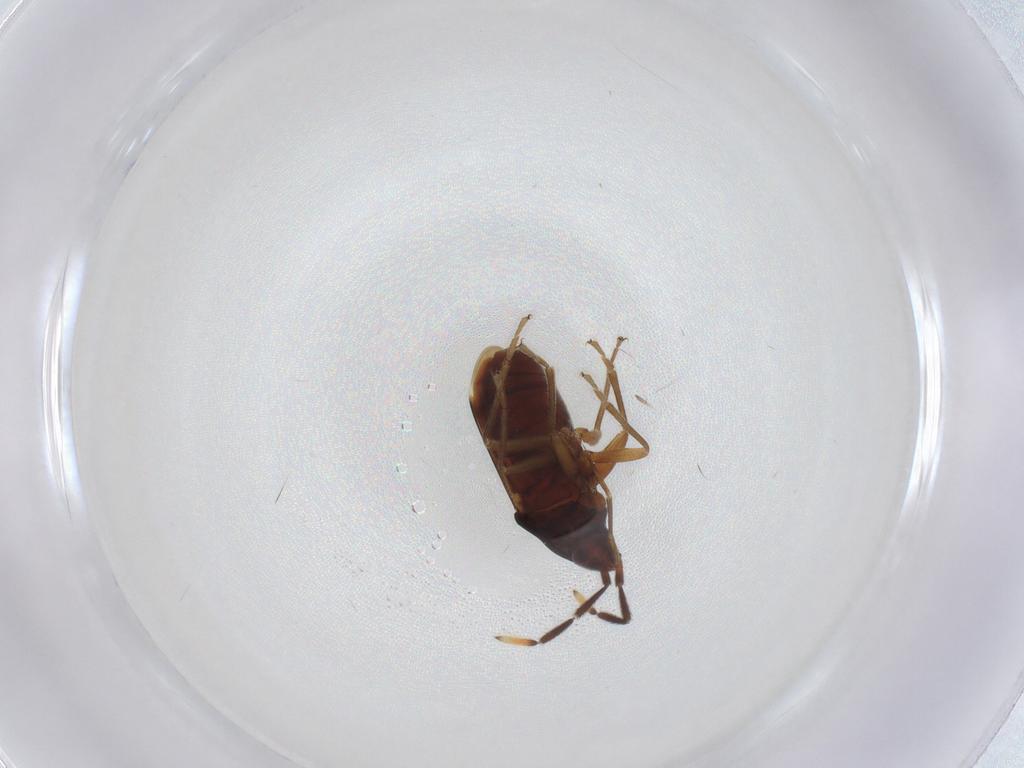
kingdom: Animalia
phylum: Arthropoda
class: Insecta
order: Hemiptera
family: Rhyparochromidae
